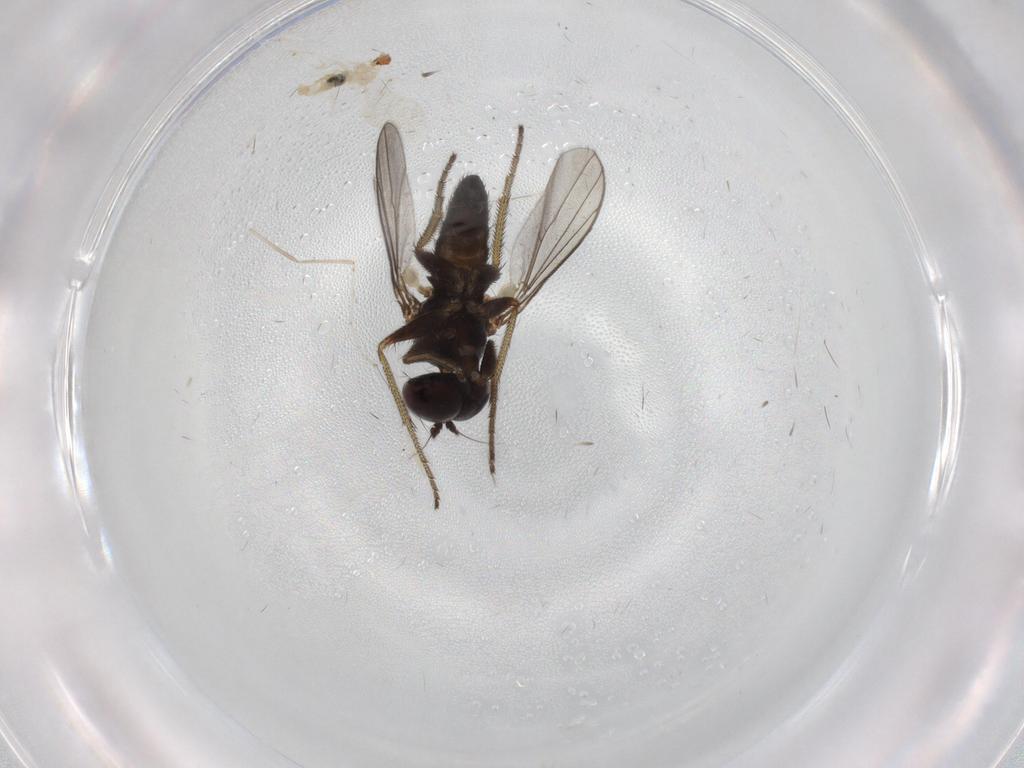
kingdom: Animalia
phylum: Arthropoda
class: Insecta
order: Diptera
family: Cecidomyiidae
